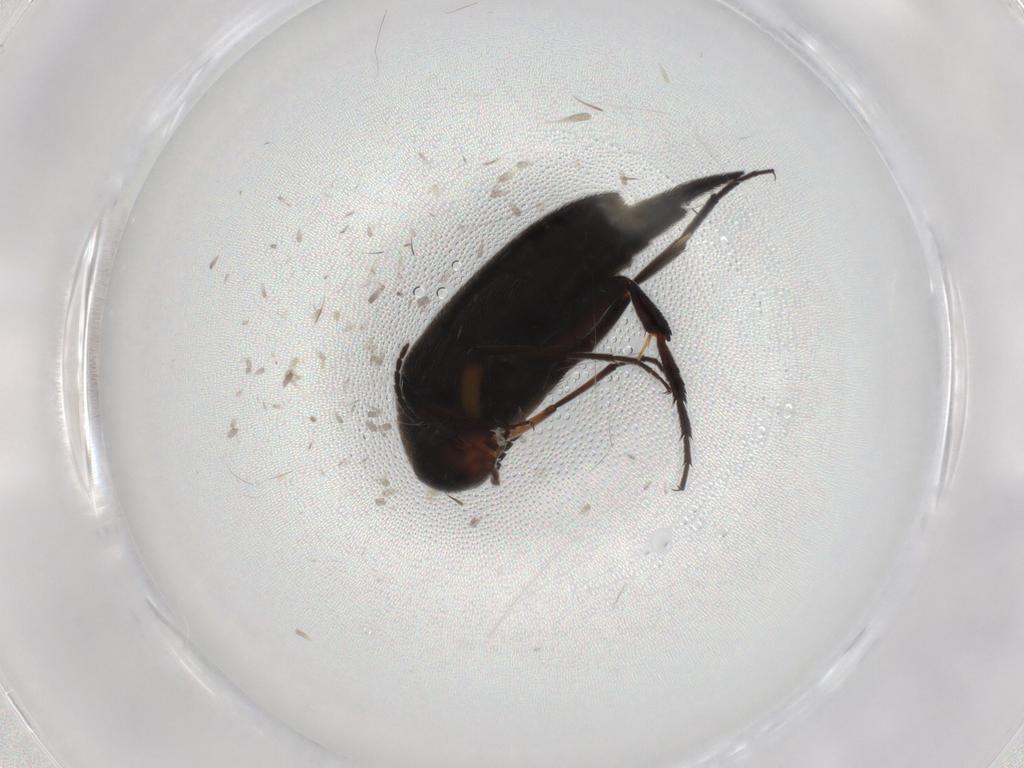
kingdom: Animalia
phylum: Arthropoda
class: Insecta
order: Coleoptera
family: Mordellidae
